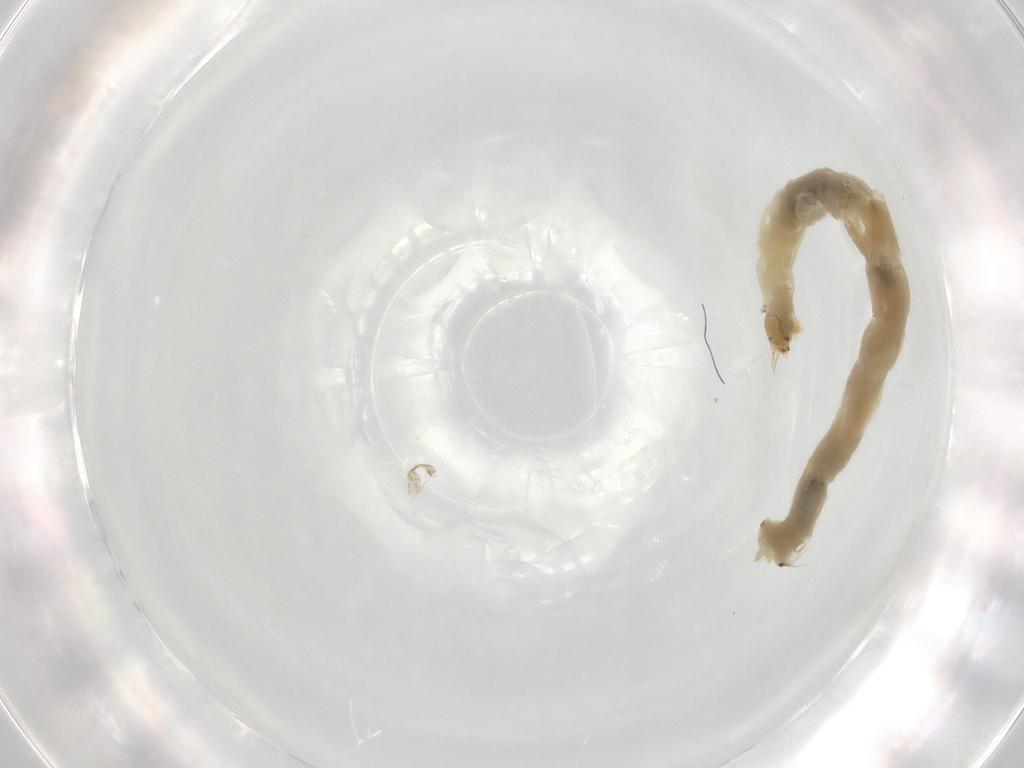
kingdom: Animalia
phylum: Arthropoda
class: Insecta
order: Diptera
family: Chironomidae
